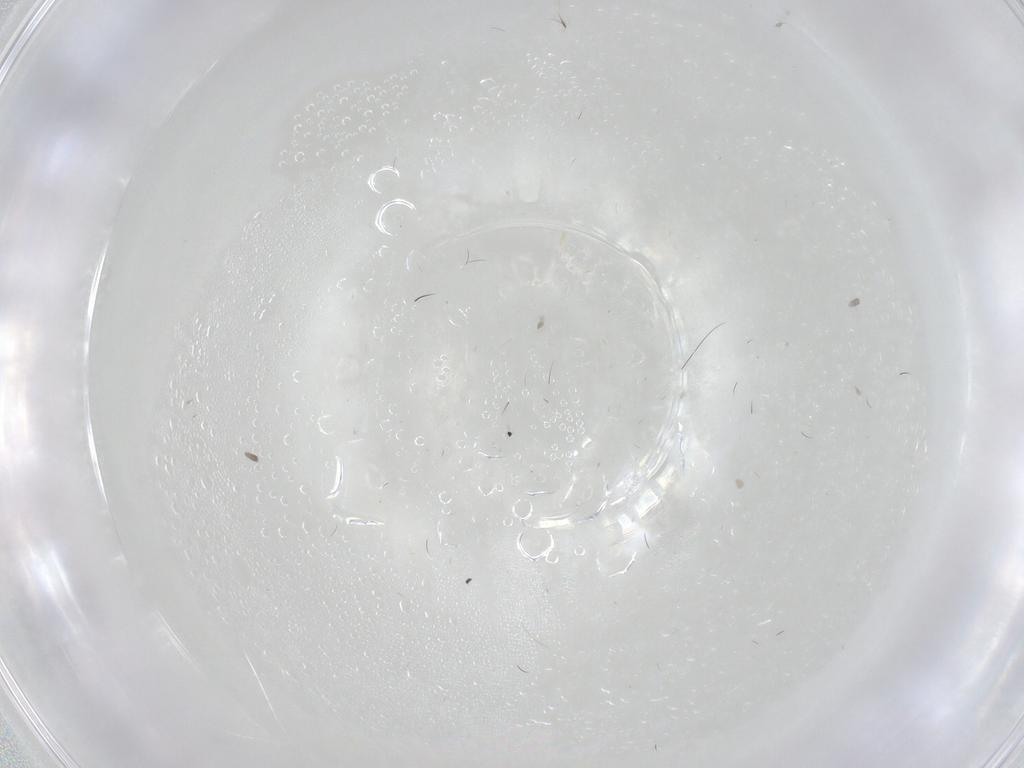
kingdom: Animalia
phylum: Arthropoda
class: Insecta
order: Diptera
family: Scatopsidae
